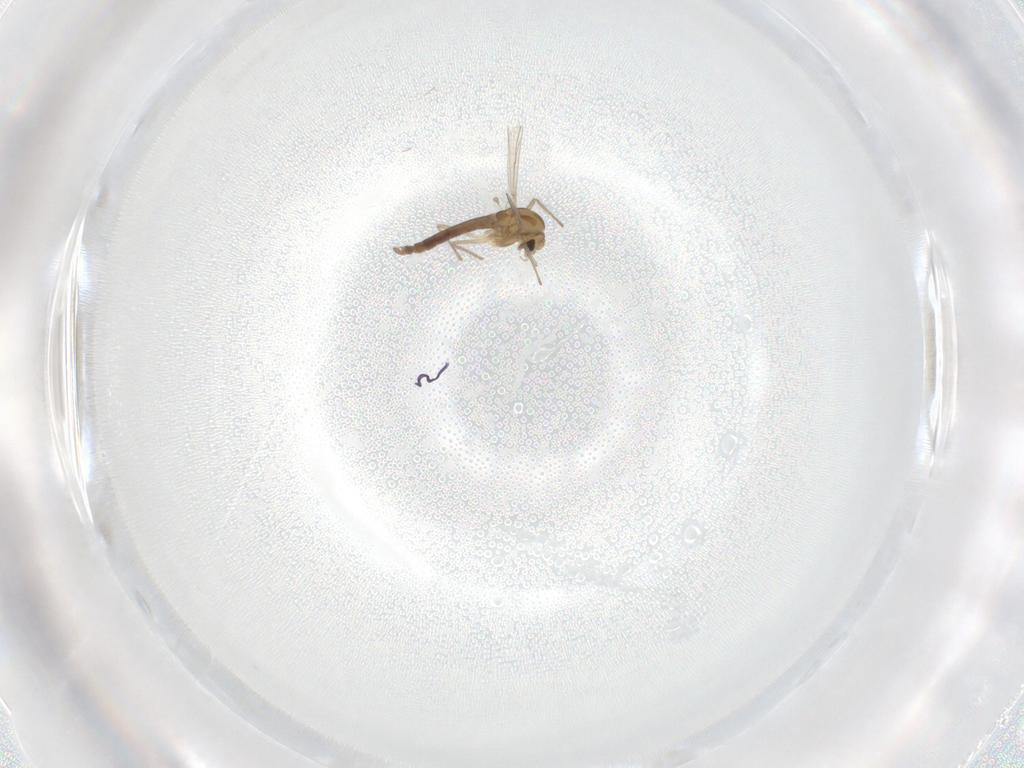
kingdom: Animalia
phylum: Arthropoda
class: Insecta
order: Diptera
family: Chironomidae
